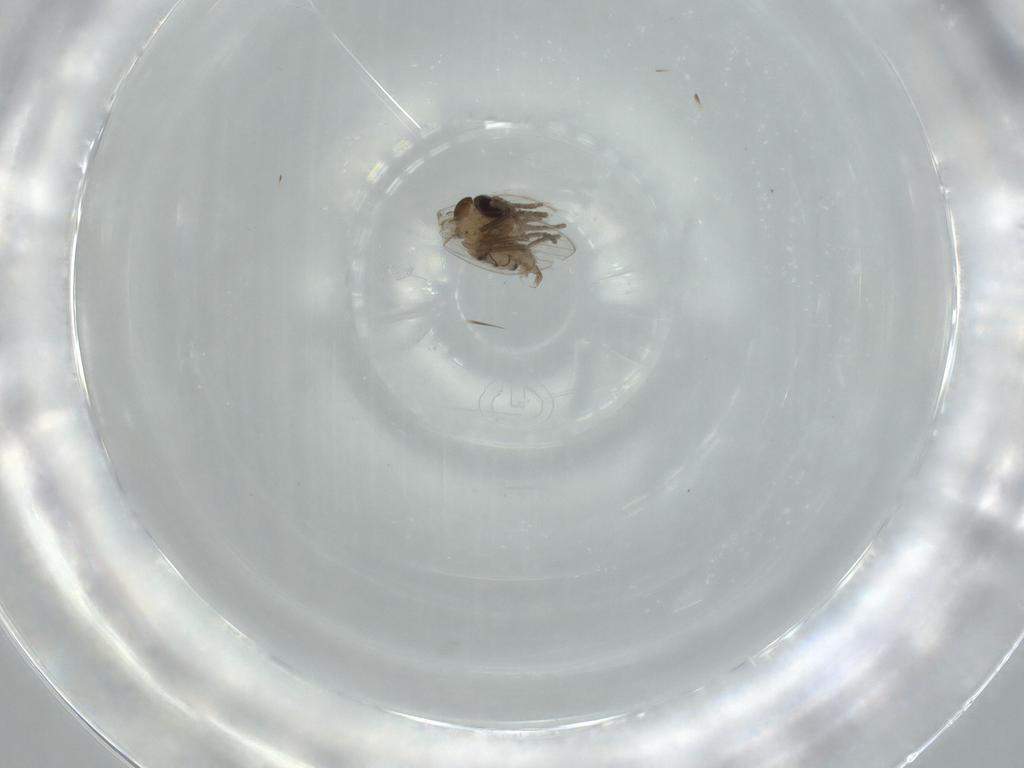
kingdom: Animalia
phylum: Arthropoda
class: Insecta
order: Diptera
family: Psychodidae
